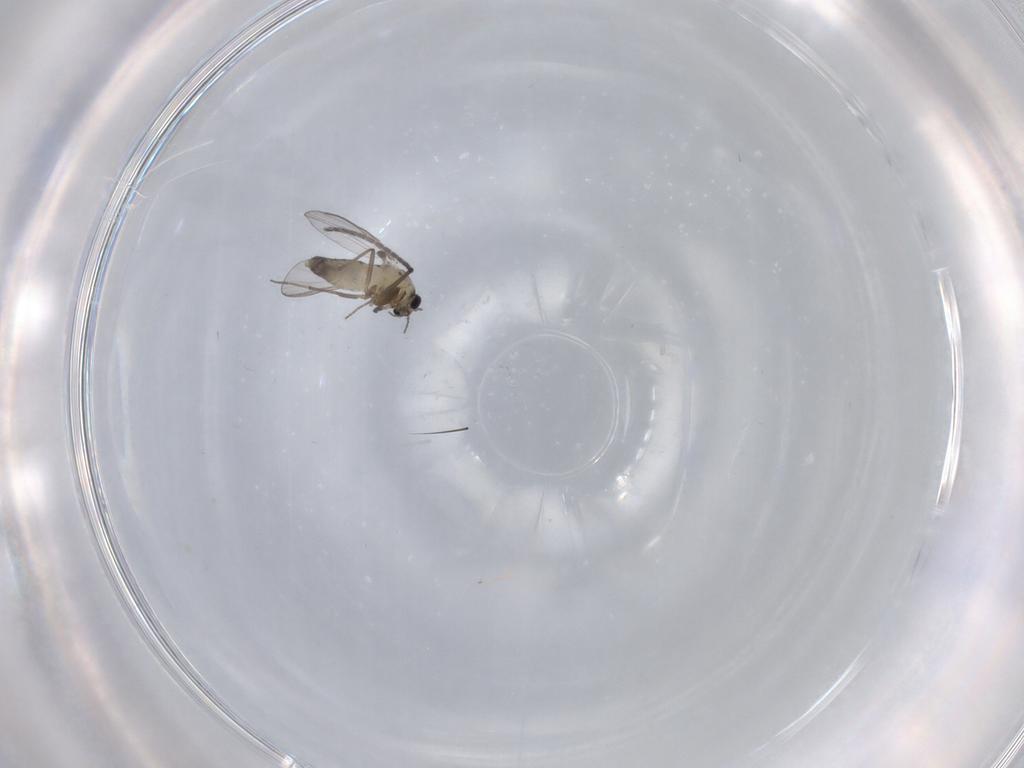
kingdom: Animalia
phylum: Arthropoda
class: Insecta
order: Diptera
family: Chironomidae
